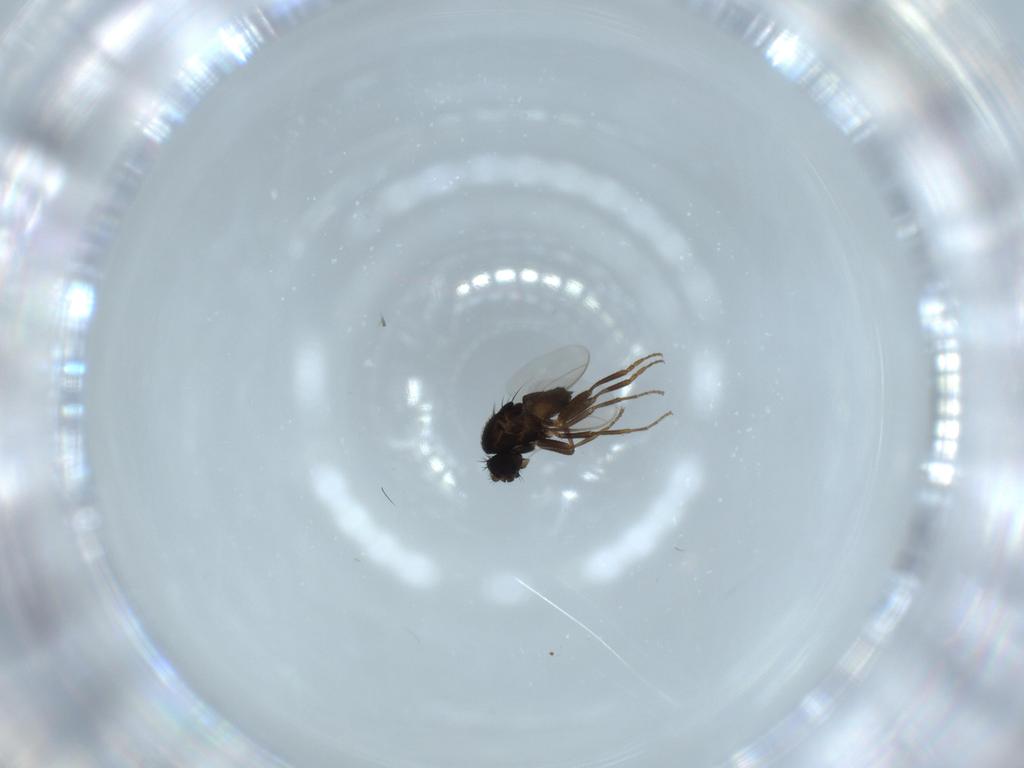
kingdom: Animalia
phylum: Arthropoda
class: Insecta
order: Diptera
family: Sphaeroceridae
